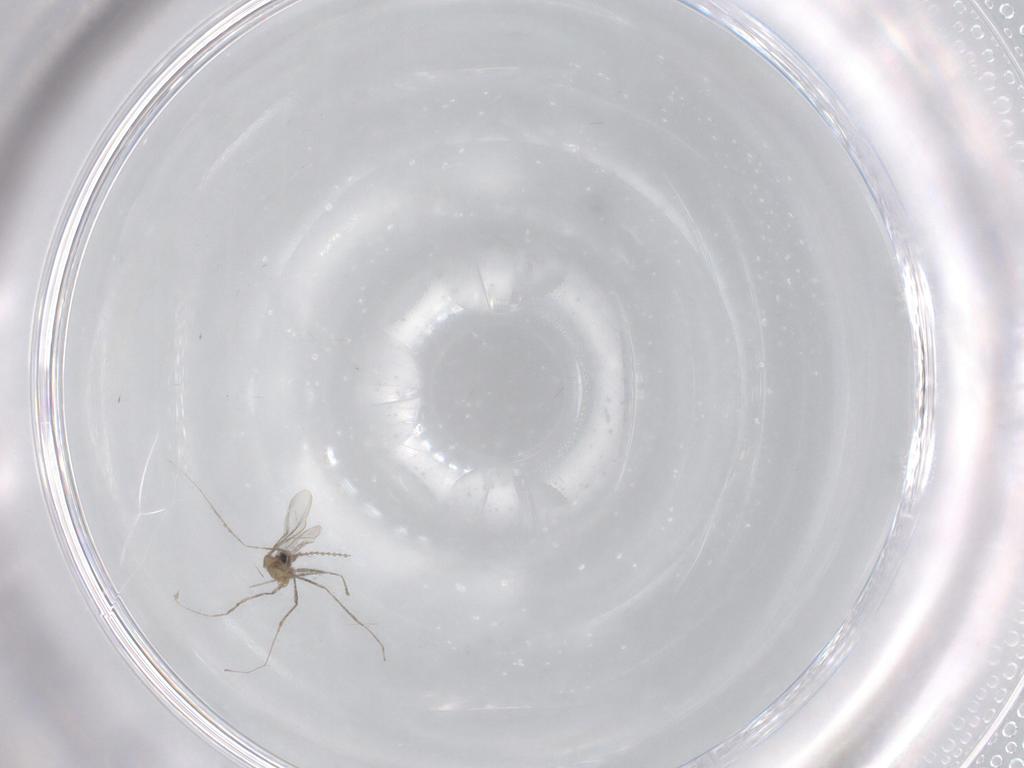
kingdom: Animalia
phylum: Arthropoda
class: Insecta
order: Diptera
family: Cecidomyiidae
